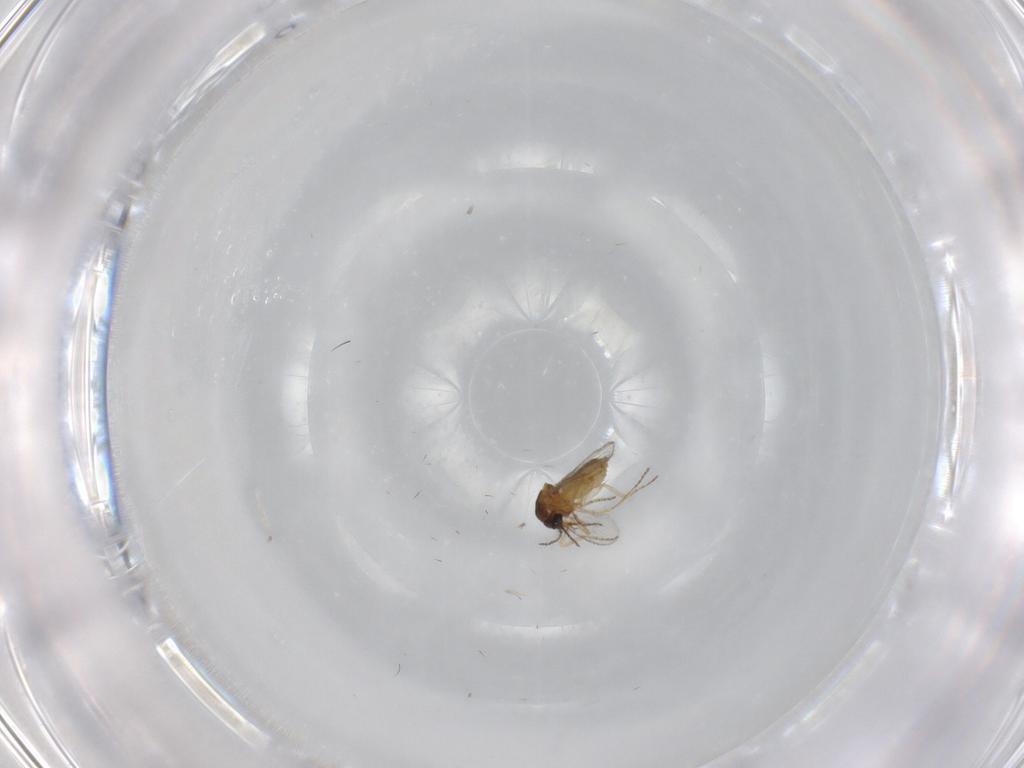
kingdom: Animalia
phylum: Arthropoda
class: Insecta
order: Diptera
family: Ceratopogonidae
